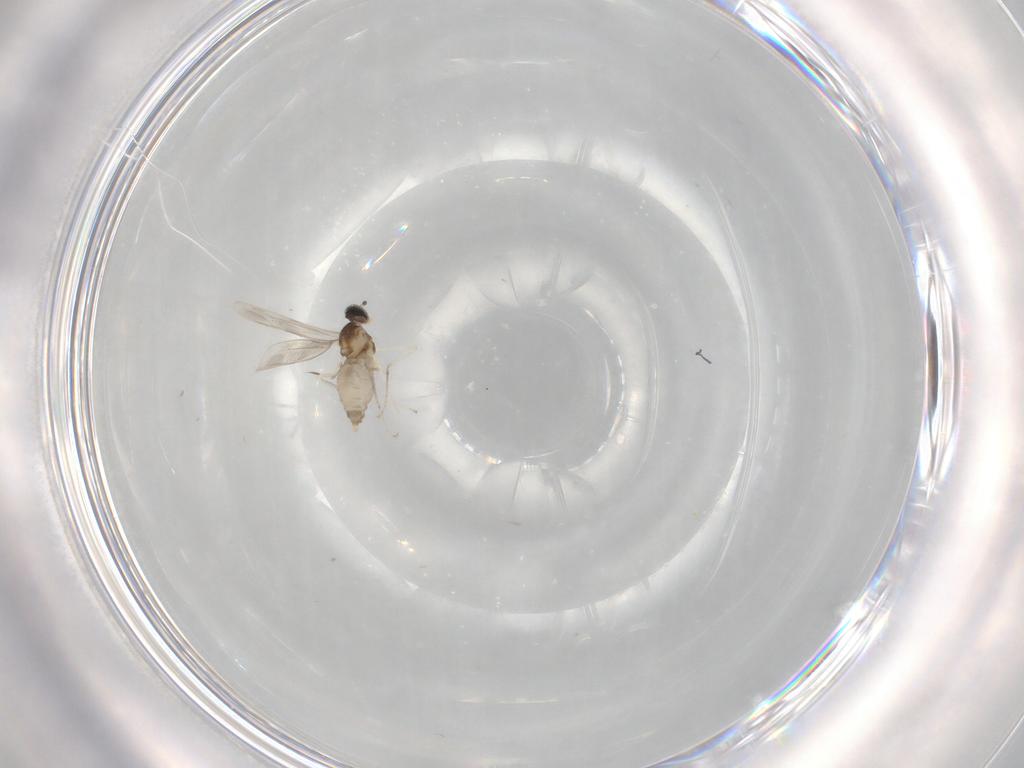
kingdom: Animalia
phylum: Arthropoda
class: Insecta
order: Diptera
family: Cecidomyiidae
